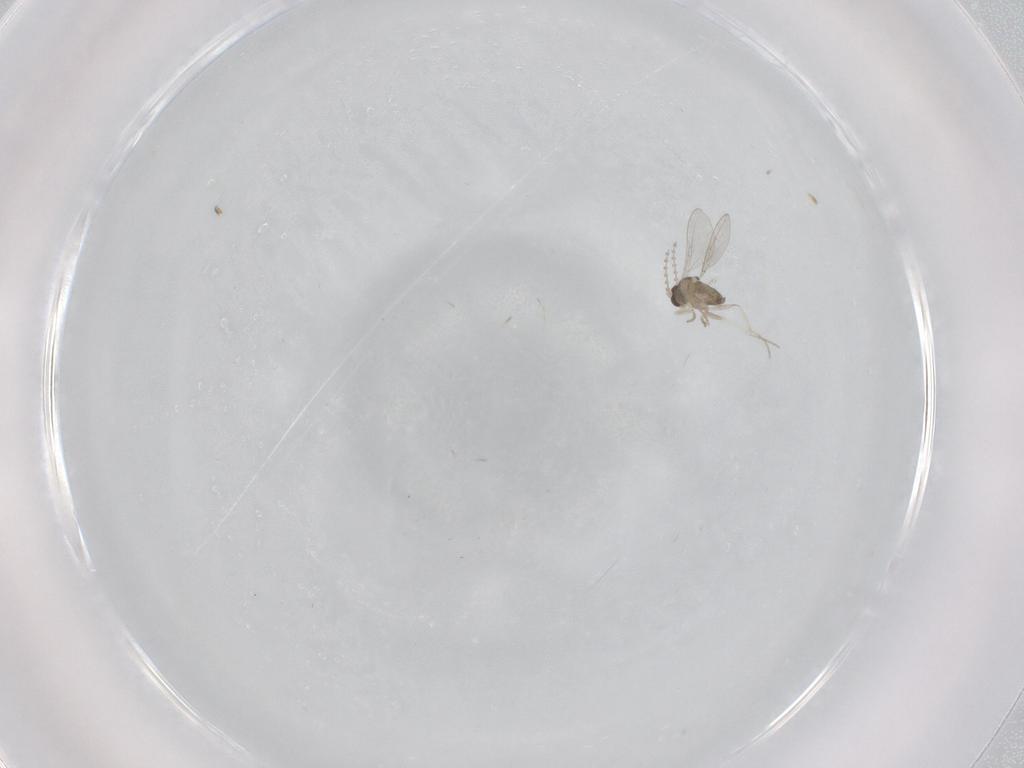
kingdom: Animalia
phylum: Arthropoda
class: Insecta
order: Diptera
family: Cecidomyiidae
